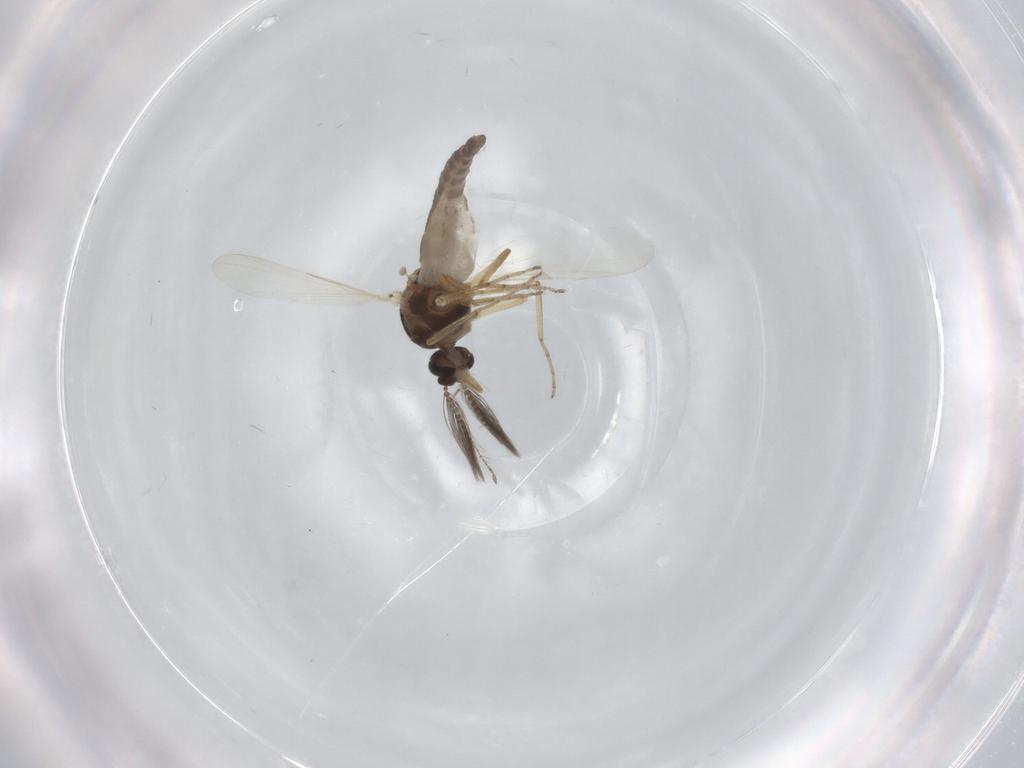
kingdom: Animalia
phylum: Arthropoda
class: Insecta
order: Diptera
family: Ceratopogonidae
